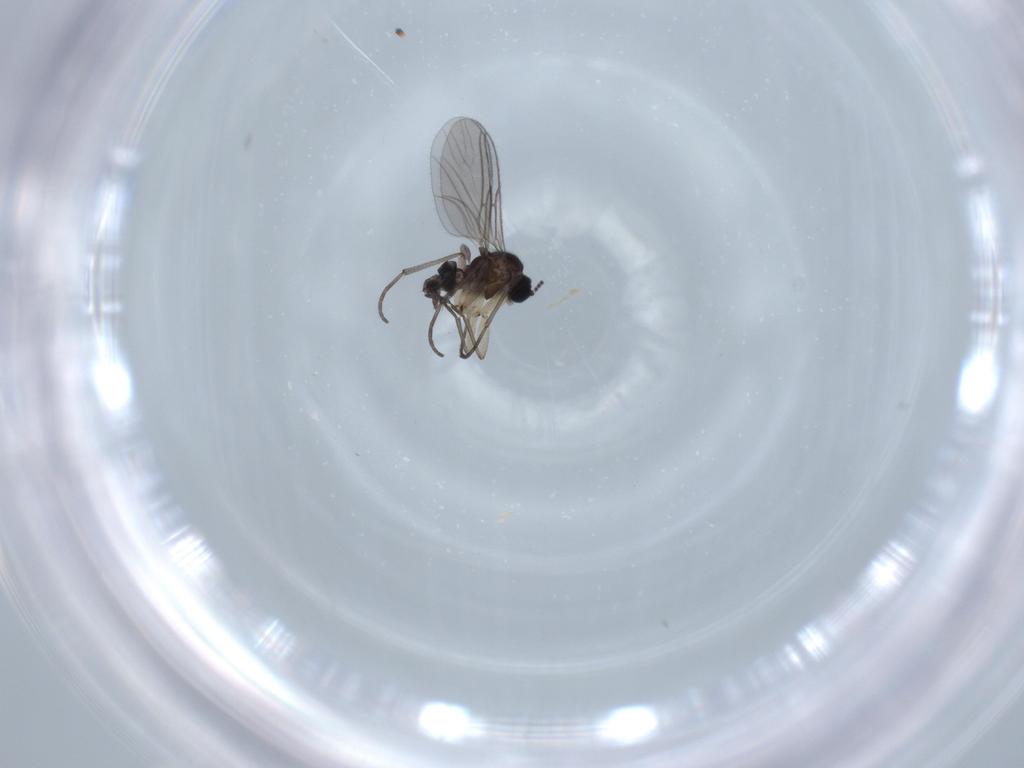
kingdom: Animalia
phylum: Arthropoda
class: Insecta
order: Diptera
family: Sciaridae
